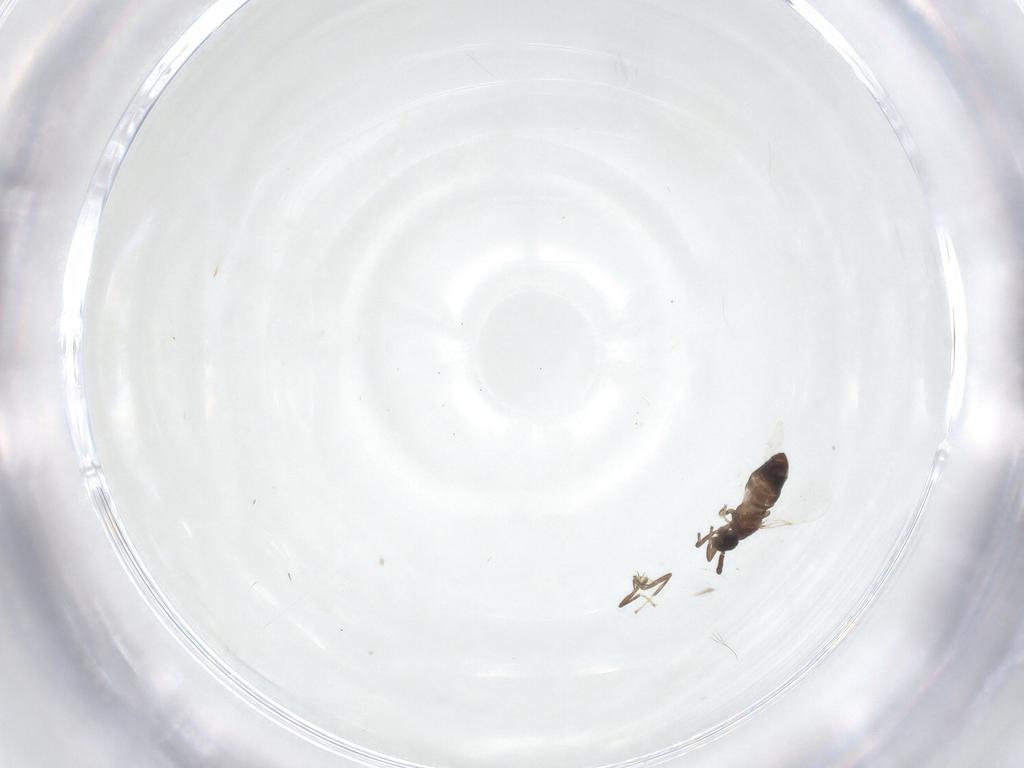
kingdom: Animalia
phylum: Arthropoda
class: Insecta
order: Diptera
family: Scatopsidae
